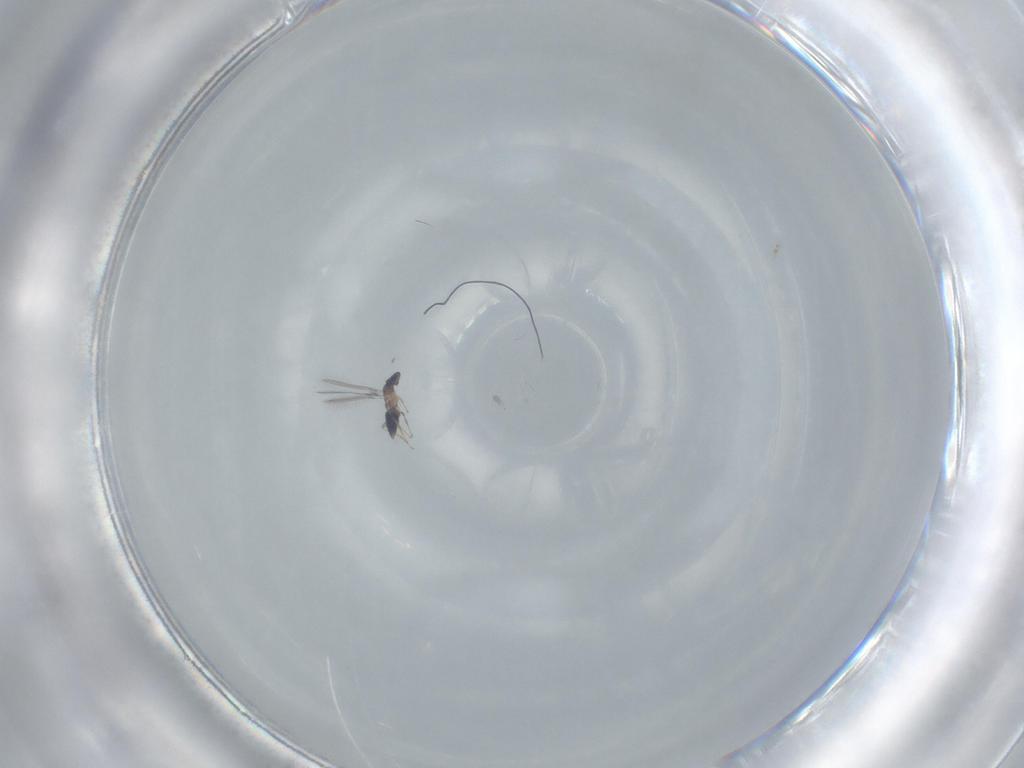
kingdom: Animalia
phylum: Arthropoda
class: Insecta
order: Hymenoptera
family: Mymaridae
